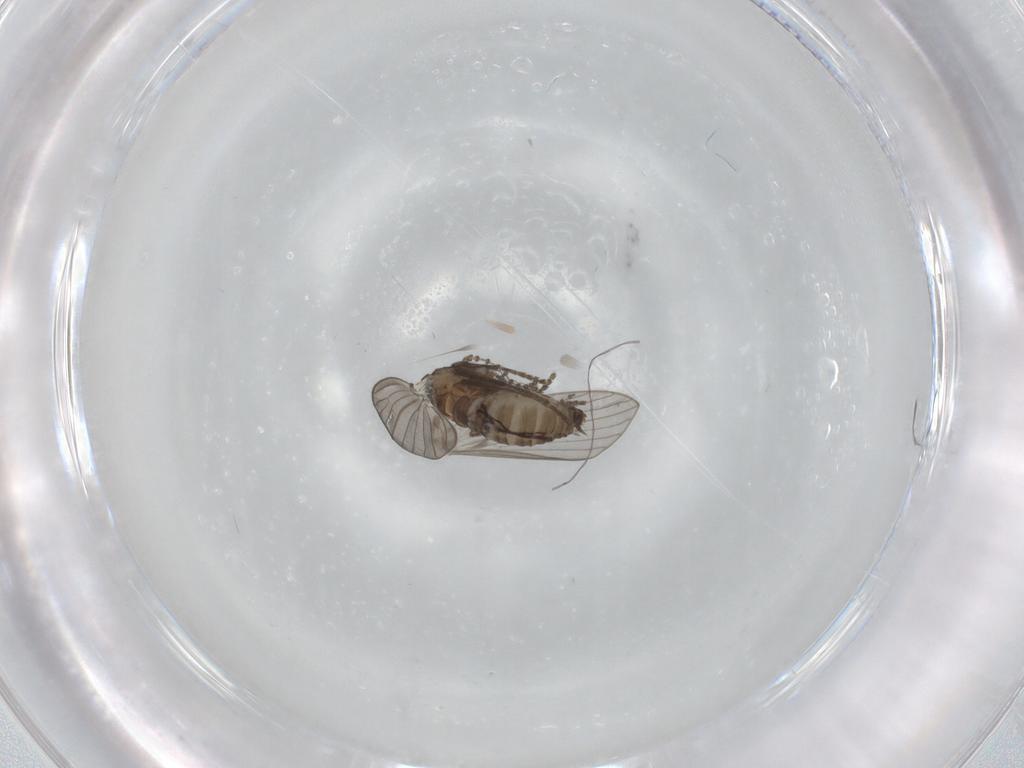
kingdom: Animalia
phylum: Arthropoda
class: Insecta
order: Diptera
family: Psychodidae
